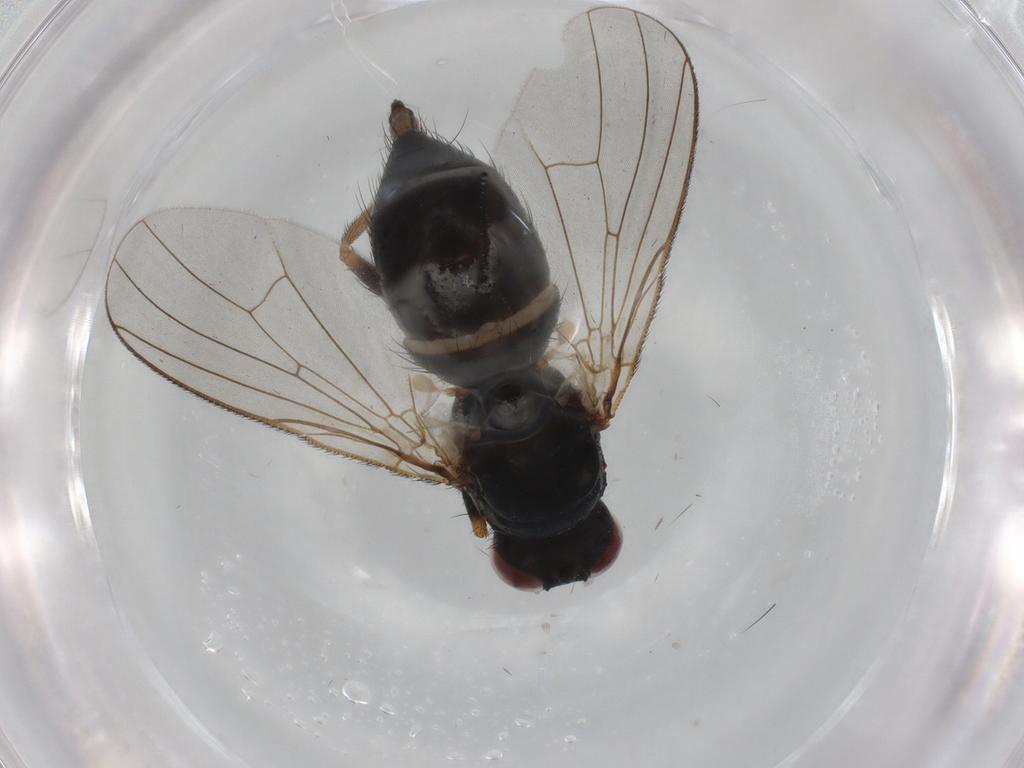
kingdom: Animalia
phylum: Arthropoda
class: Insecta
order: Diptera
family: Muscidae
